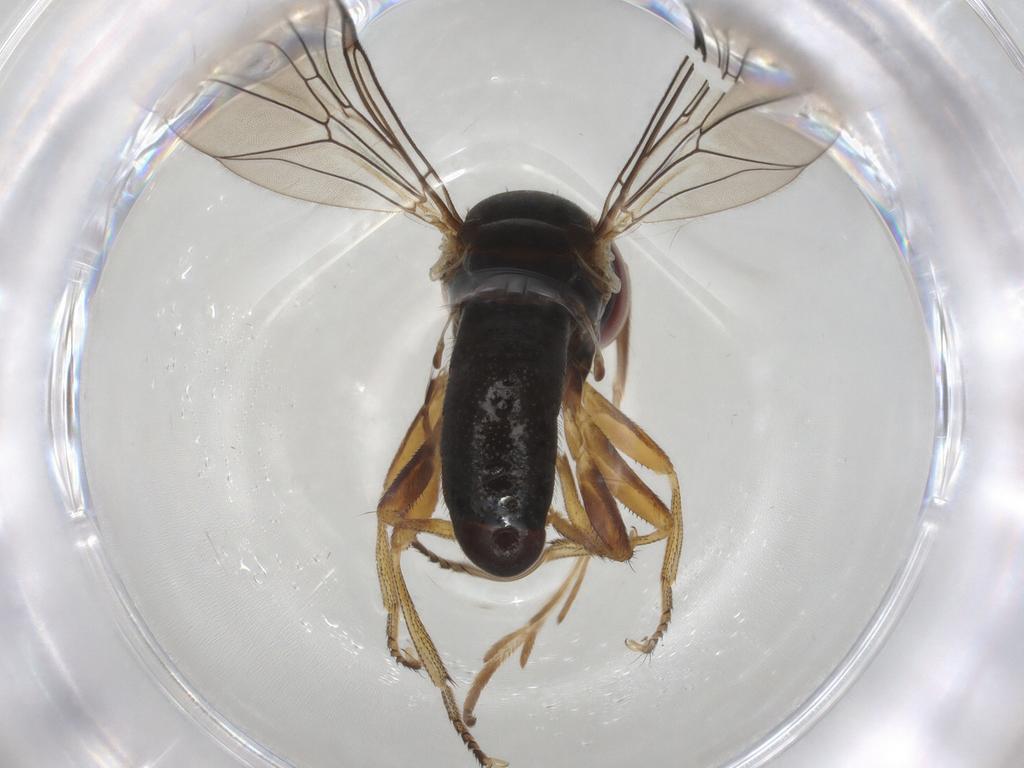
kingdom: Animalia
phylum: Arthropoda
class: Insecta
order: Diptera
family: Pipunculidae
